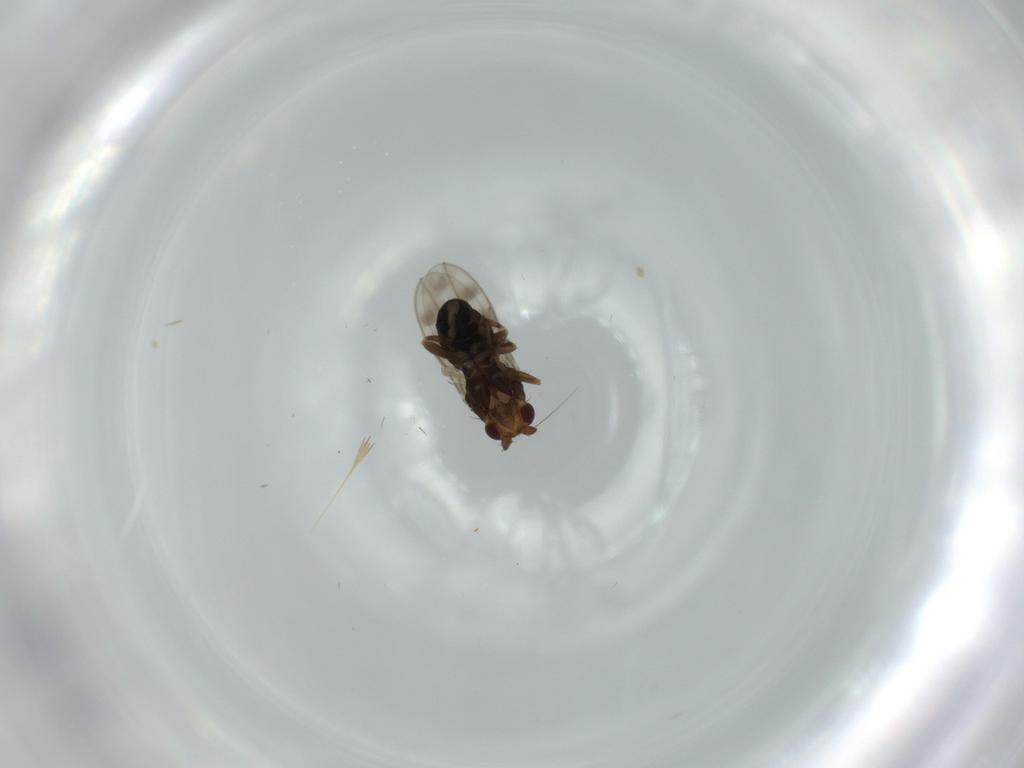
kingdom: Animalia
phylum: Arthropoda
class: Insecta
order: Diptera
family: Sphaeroceridae
